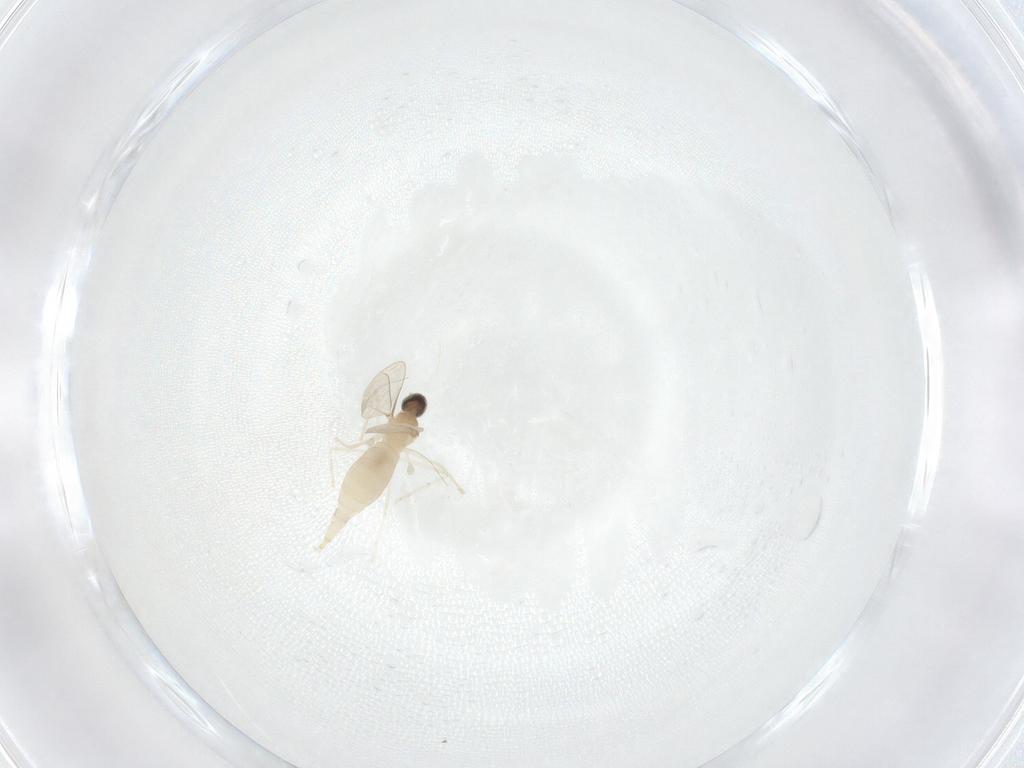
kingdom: Animalia
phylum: Arthropoda
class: Insecta
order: Diptera
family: Cecidomyiidae
